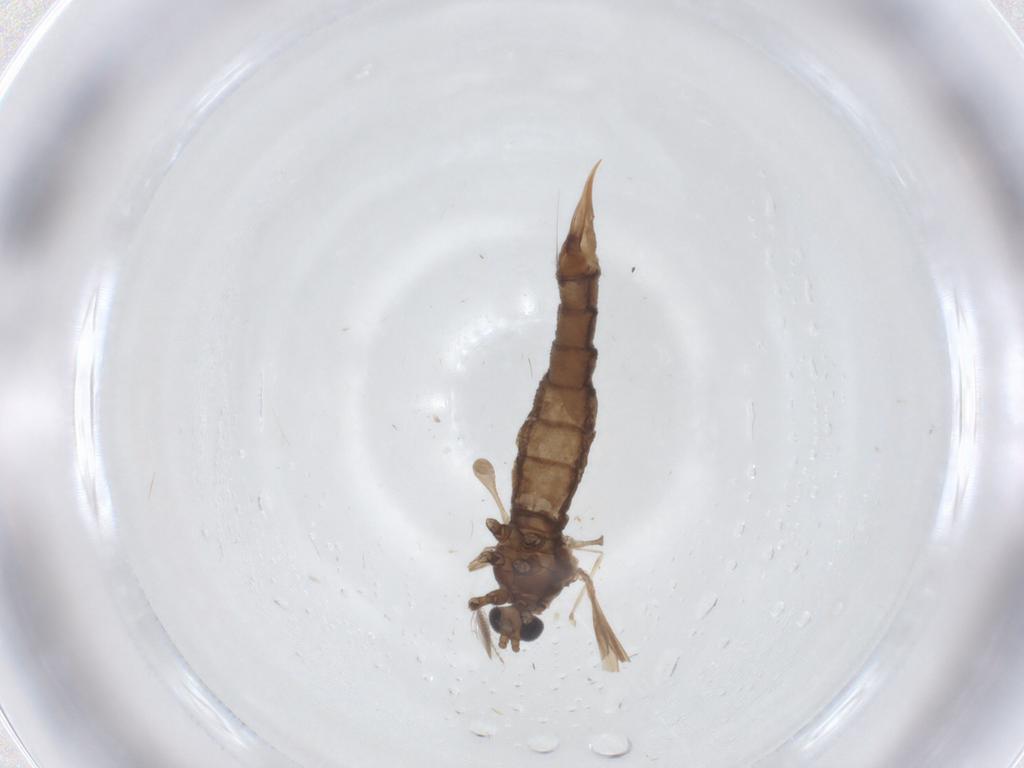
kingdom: Animalia
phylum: Arthropoda
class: Insecta
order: Diptera
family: Limoniidae
